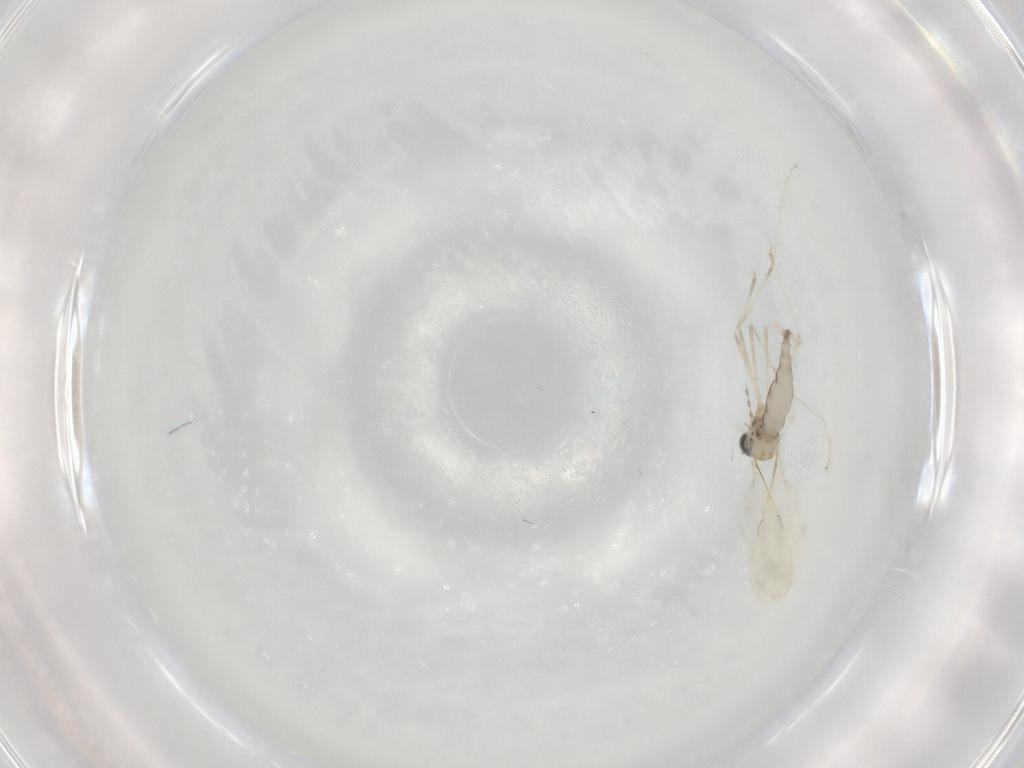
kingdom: Animalia
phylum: Arthropoda
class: Insecta
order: Diptera
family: Cecidomyiidae
